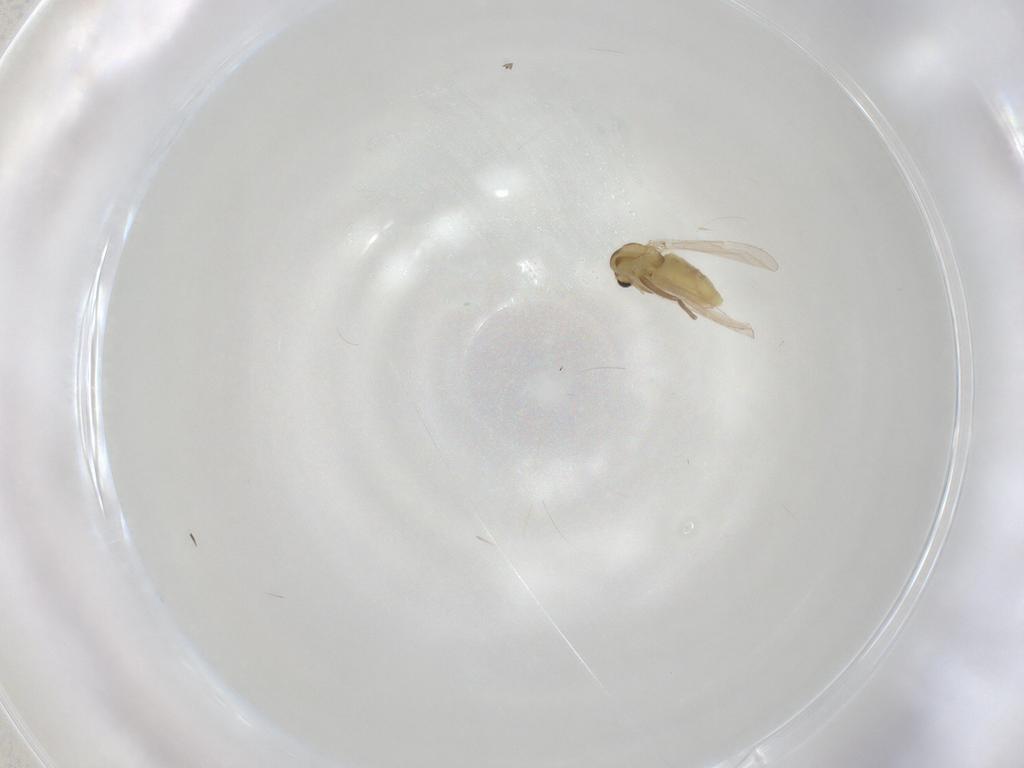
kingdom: Animalia
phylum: Arthropoda
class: Insecta
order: Diptera
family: Chironomidae
